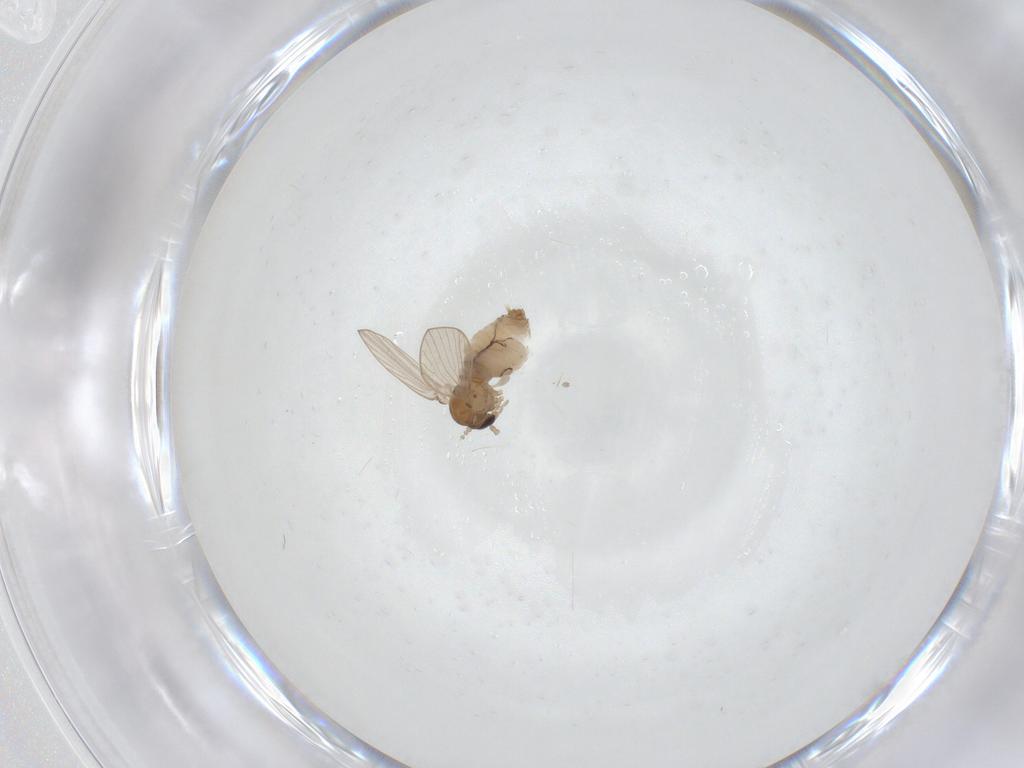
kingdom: Animalia
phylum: Arthropoda
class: Insecta
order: Diptera
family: Psychodidae
